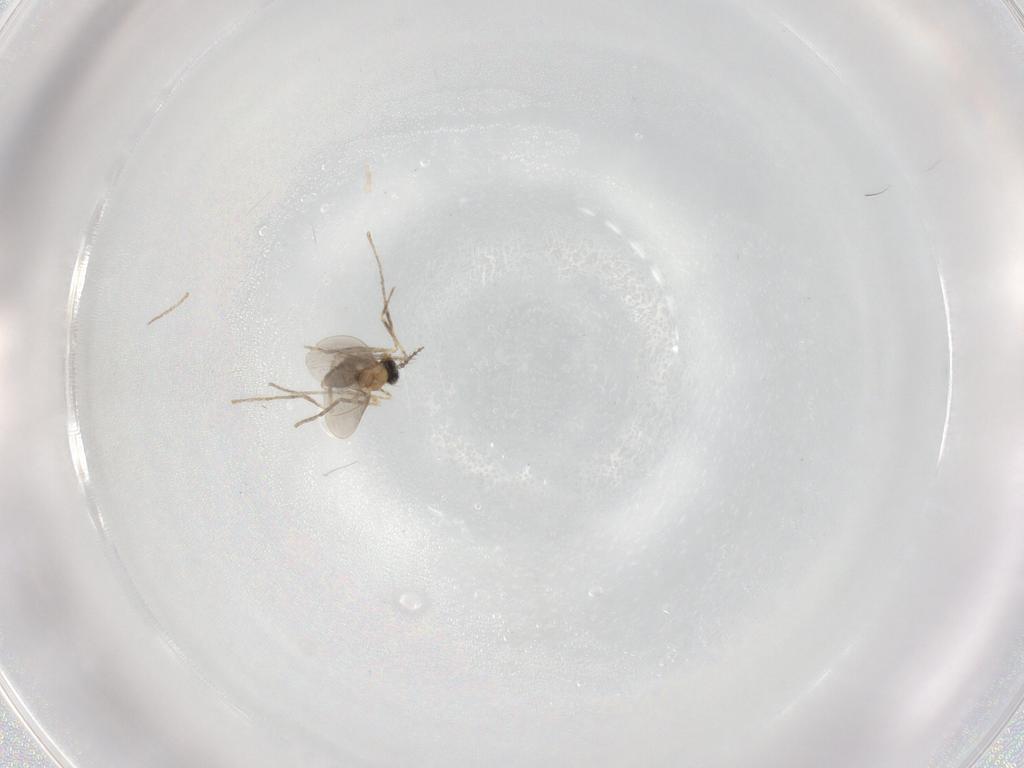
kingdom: Animalia
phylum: Arthropoda
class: Insecta
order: Diptera
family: Cecidomyiidae
